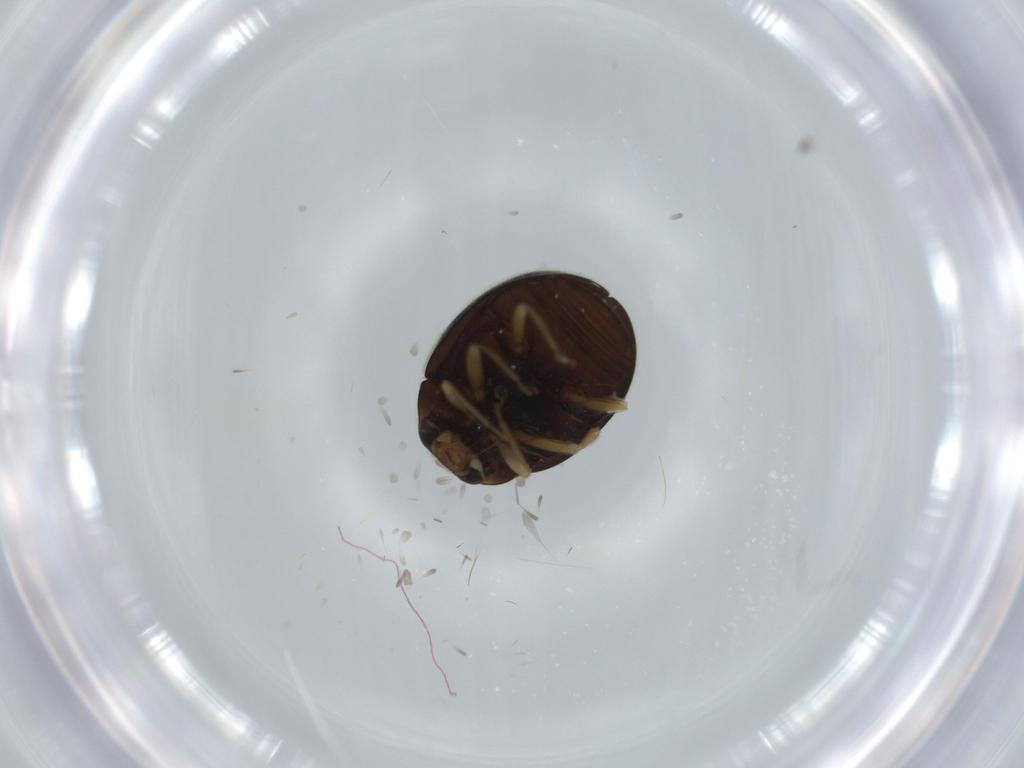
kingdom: Animalia
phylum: Arthropoda
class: Insecta
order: Coleoptera
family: Coccinellidae
